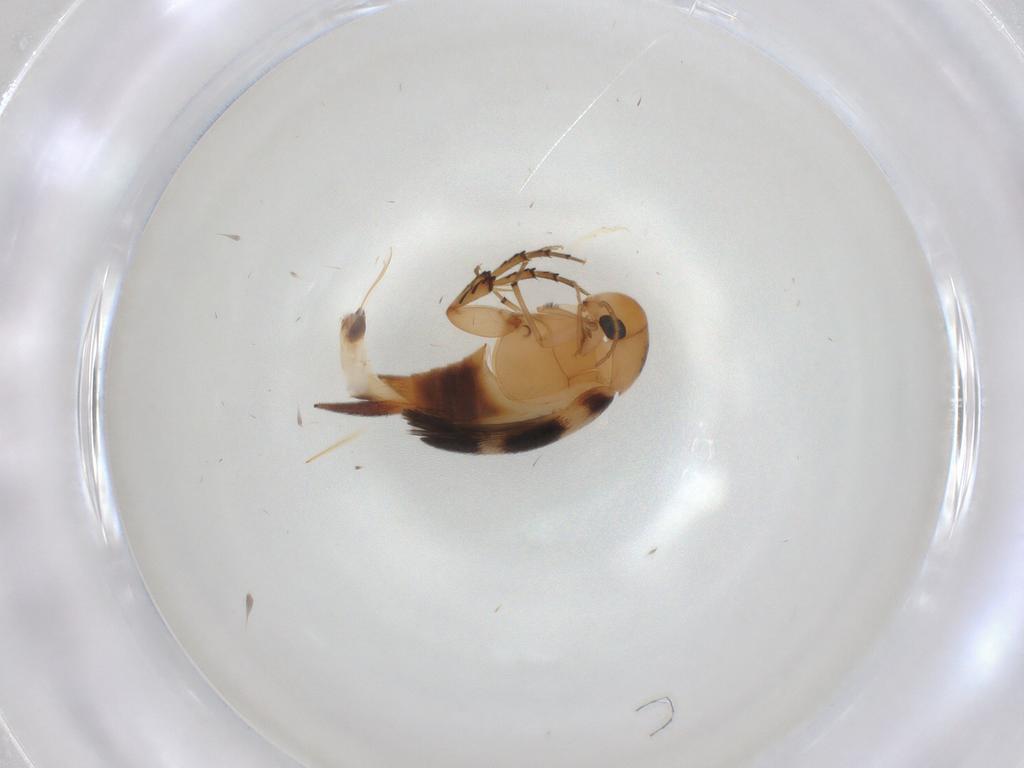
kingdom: Animalia
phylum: Arthropoda
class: Insecta
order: Coleoptera
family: Mordellidae
